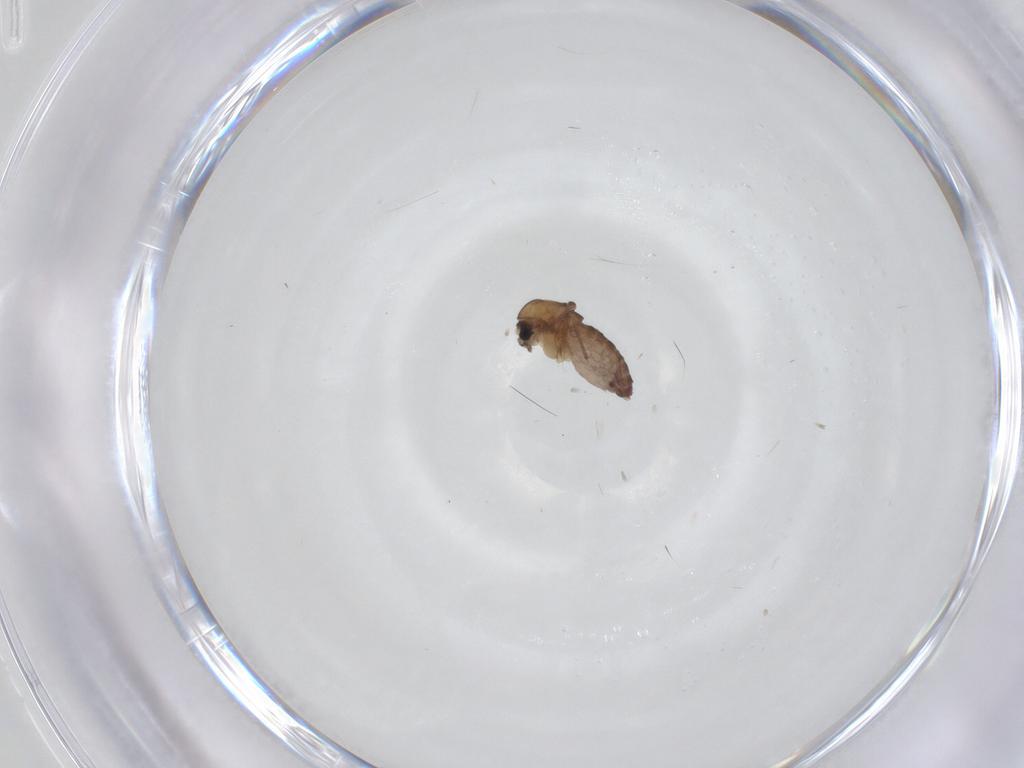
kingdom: Animalia
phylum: Arthropoda
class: Insecta
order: Diptera
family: Chironomidae
